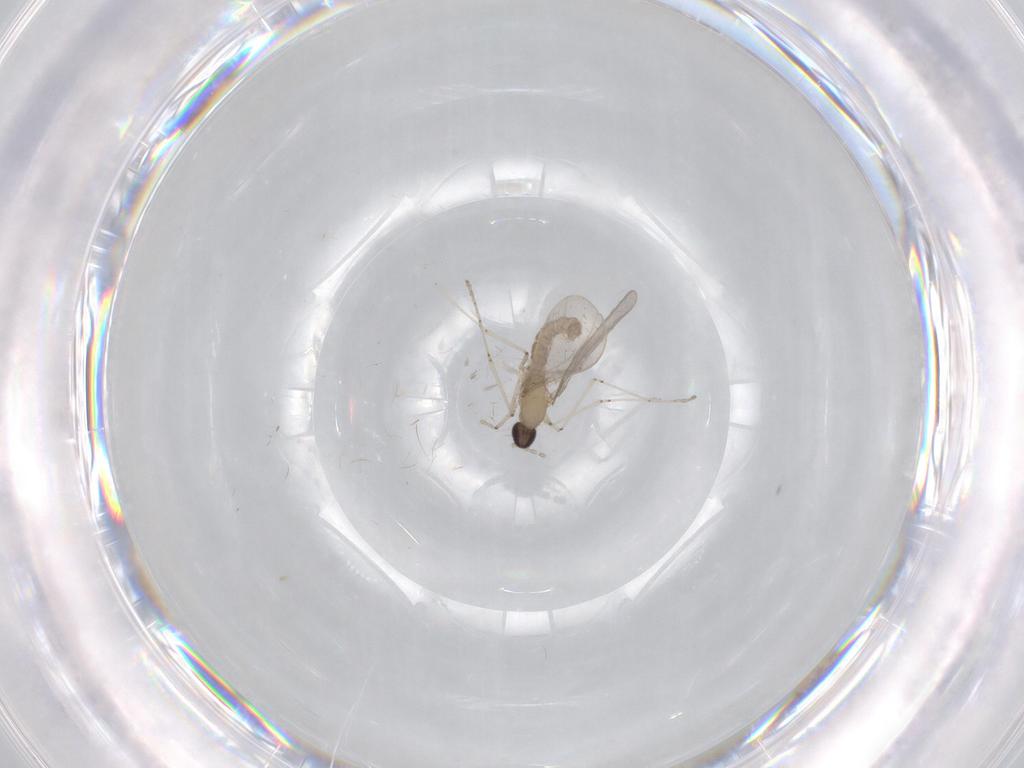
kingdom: Animalia
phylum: Arthropoda
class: Insecta
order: Diptera
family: Cecidomyiidae
